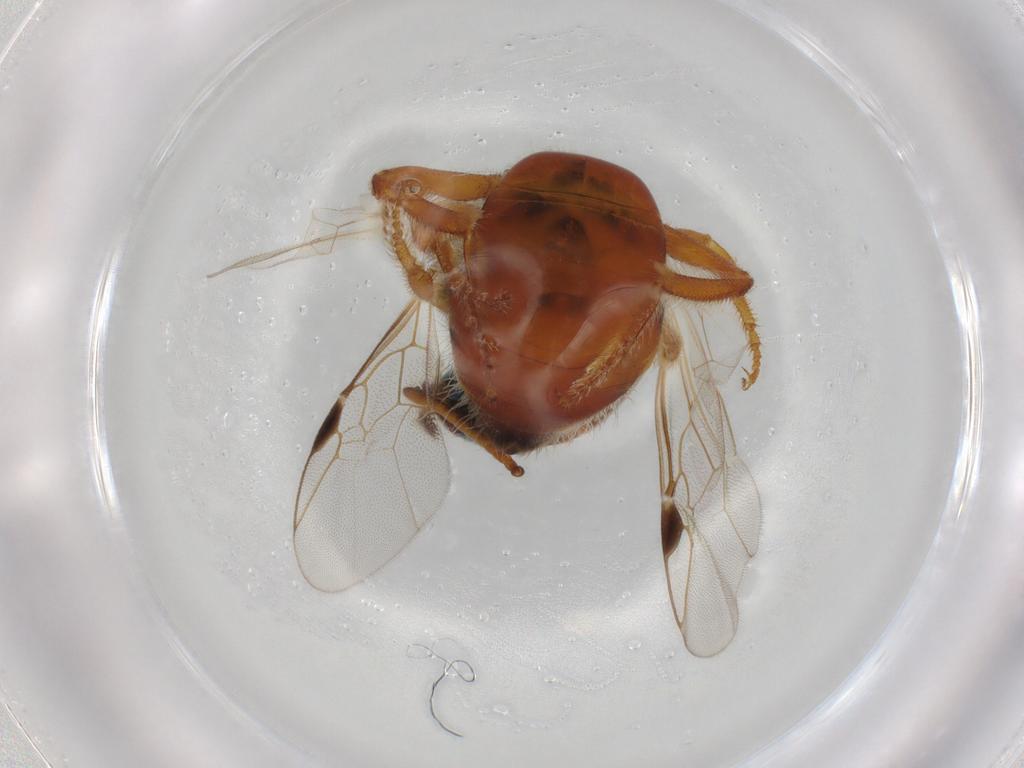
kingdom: Animalia
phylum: Arthropoda
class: Insecta
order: Hymenoptera
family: Halictidae
